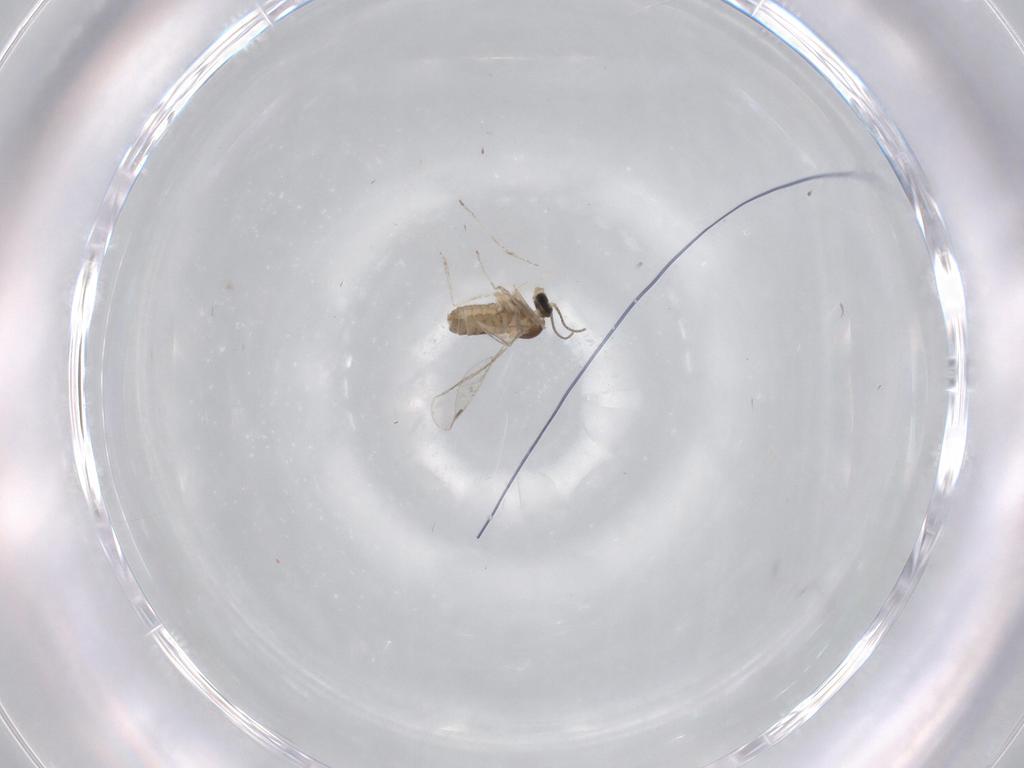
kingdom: Animalia
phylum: Arthropoda
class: Insecta
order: Diptera
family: Cecidomyiidae
